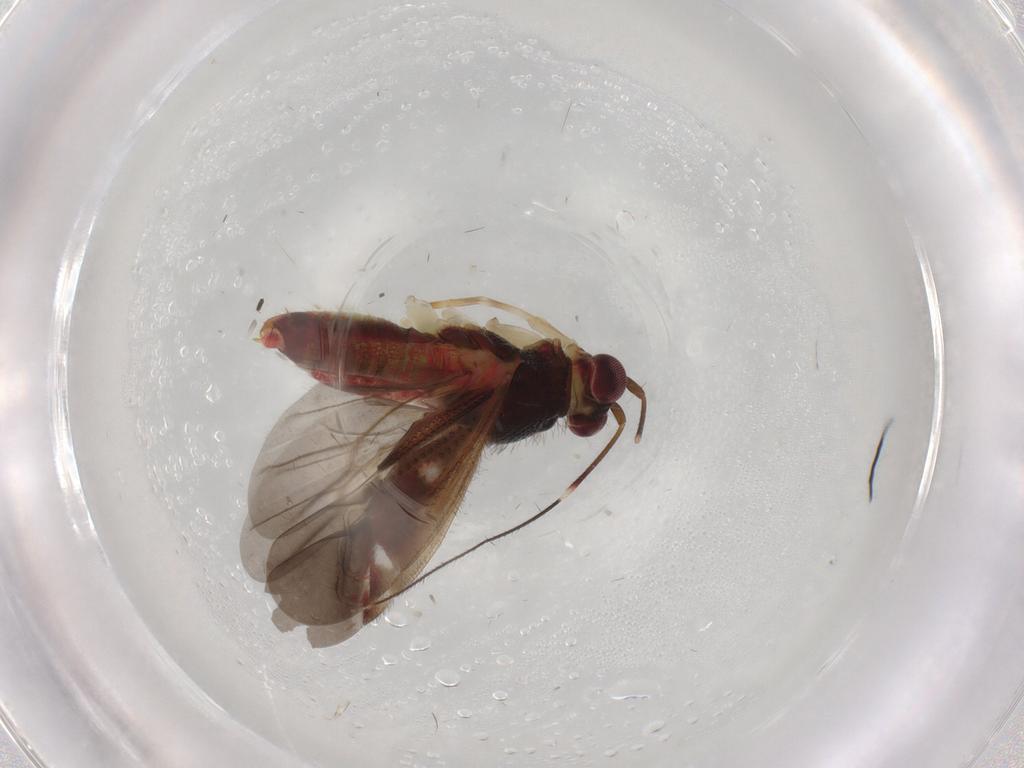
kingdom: Animalia
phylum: Arthropoda
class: Insecta
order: Hemiptera
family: Miridae
